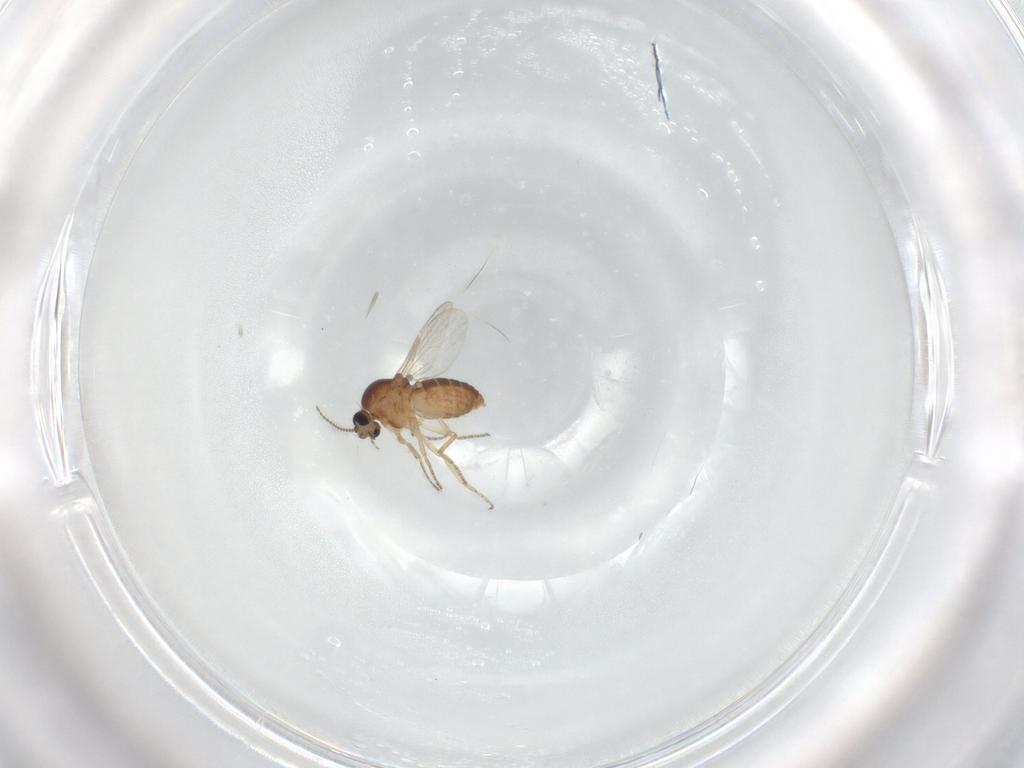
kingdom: Animalia
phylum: Arthropoda
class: Insecta
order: Diptera
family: Ceratopogonidae
